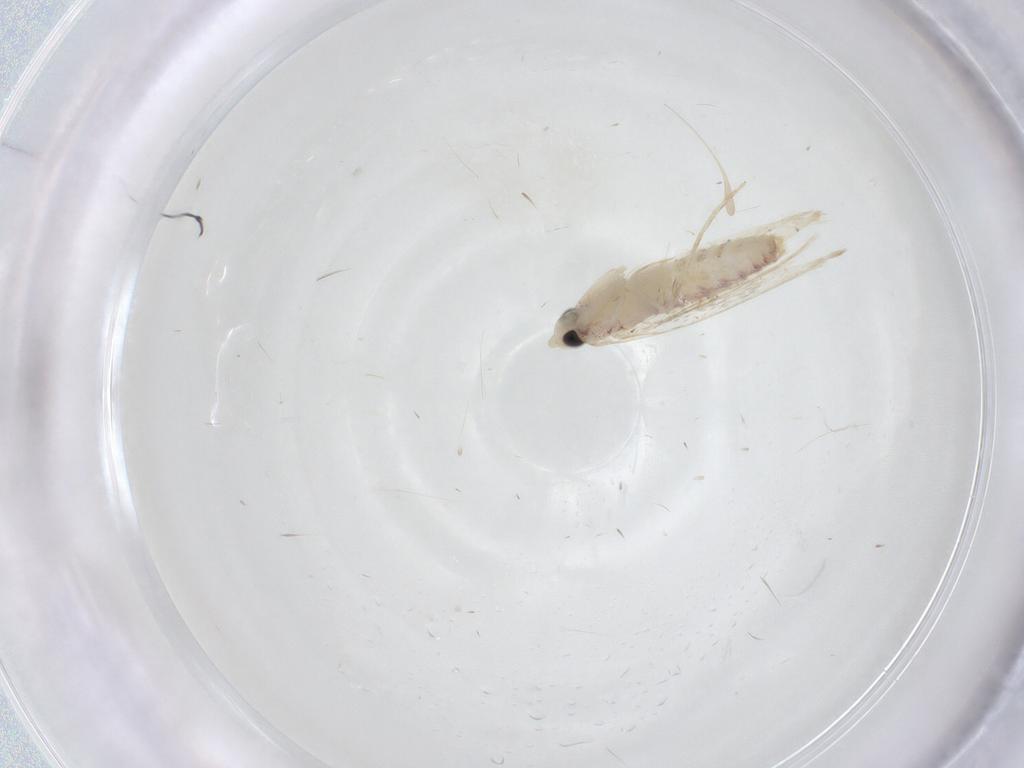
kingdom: Animalia
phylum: Arthropoda
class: Insecta
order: Lepidoptera
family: Tineidae
